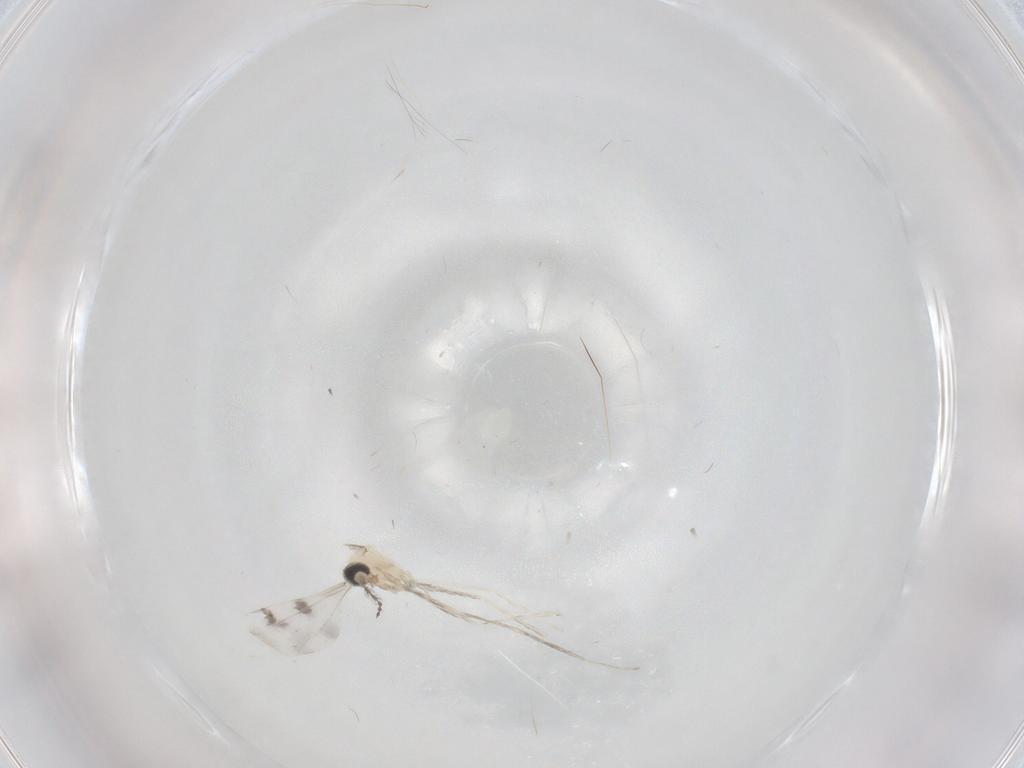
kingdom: Animalia
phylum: Arthropoda
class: Insecta
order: Diptera
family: Cecidomyiidae
